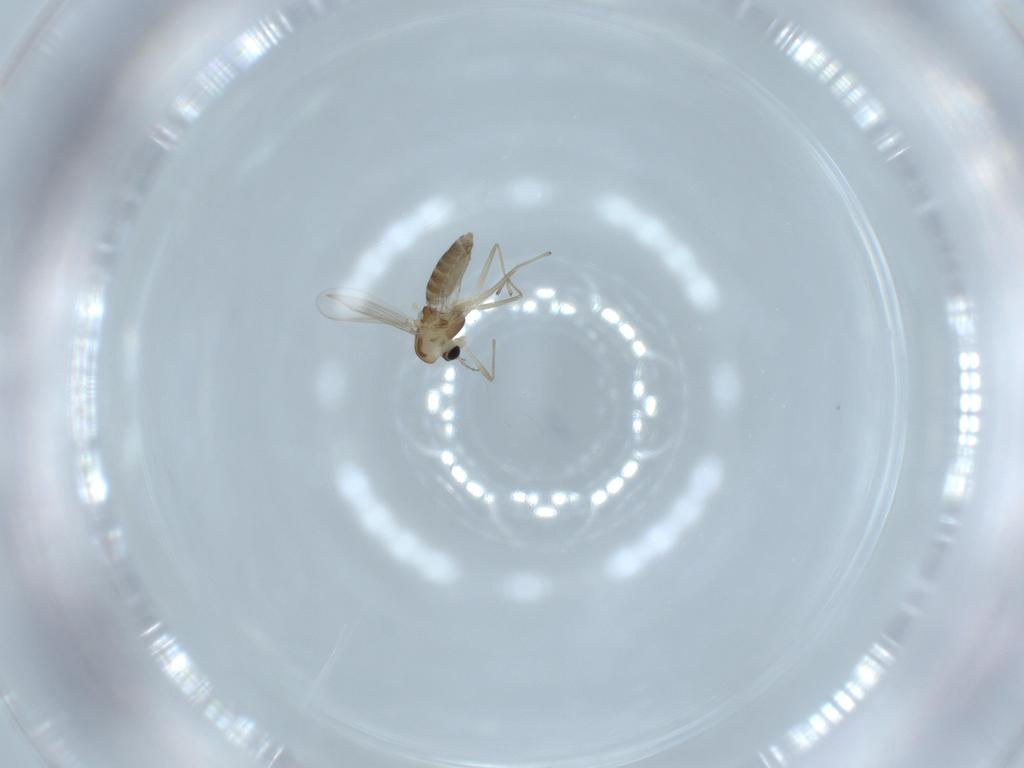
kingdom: Animalia
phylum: Arthropoda
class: Insecta
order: Diptera
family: Chironomidae
